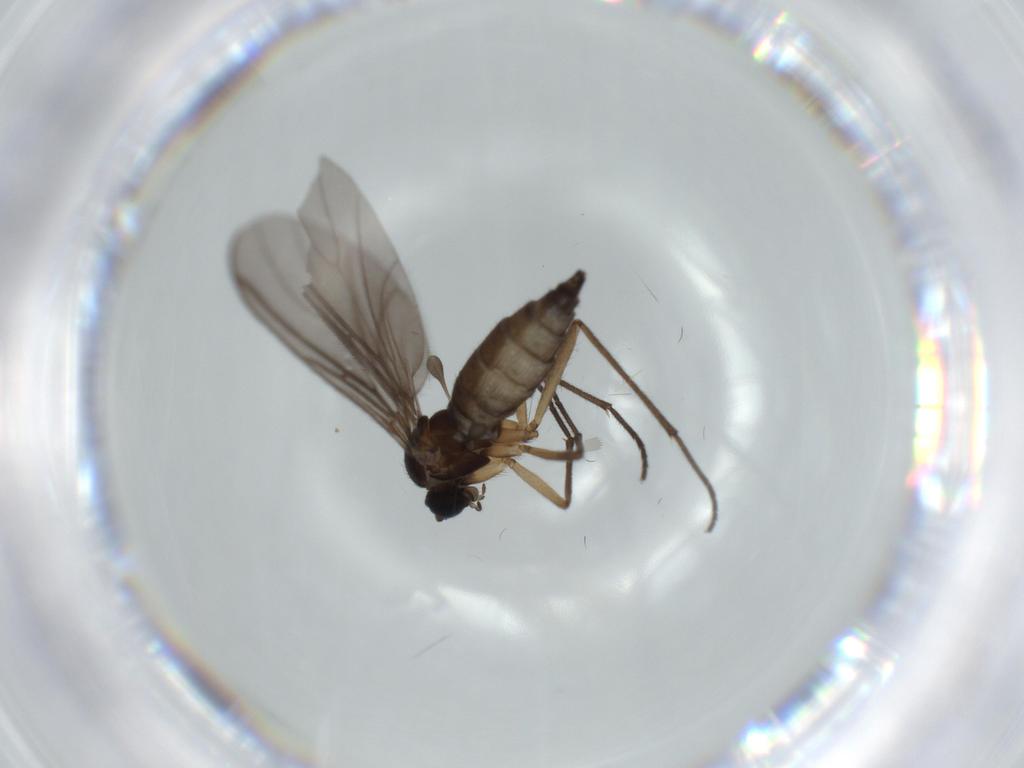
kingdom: Animalia
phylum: Arthropoda
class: Insecta
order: Diptera
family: Sciaridae
